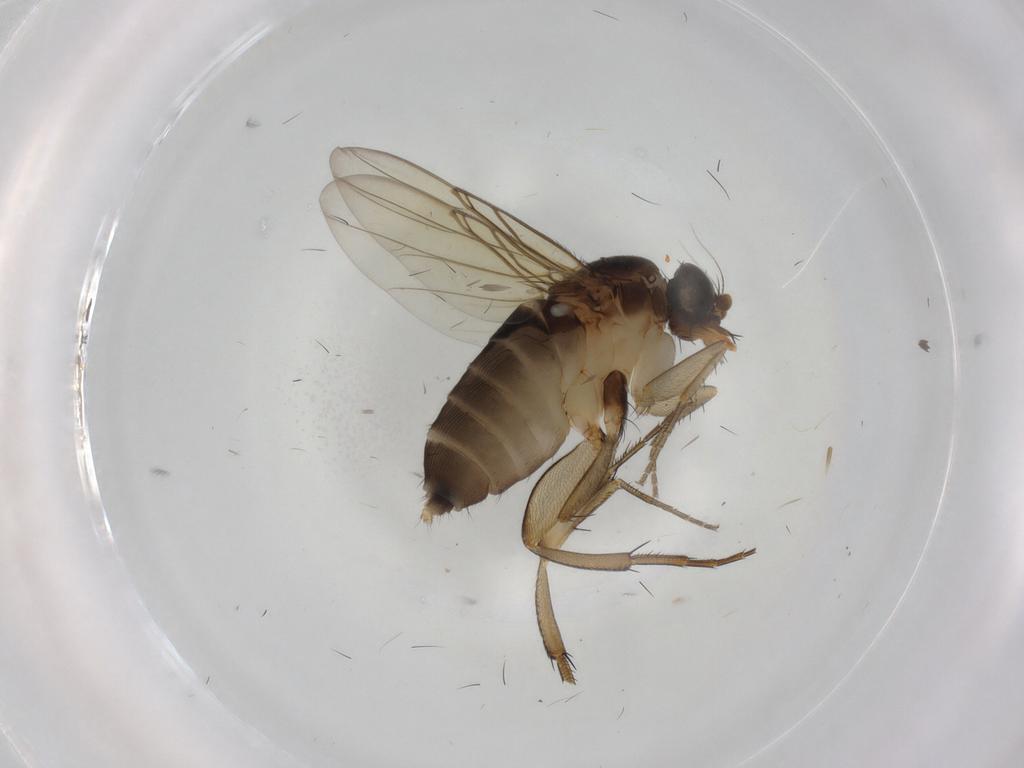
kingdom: Animalia
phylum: Arthropoda
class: Insecta
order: Diptera
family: Phoridae
